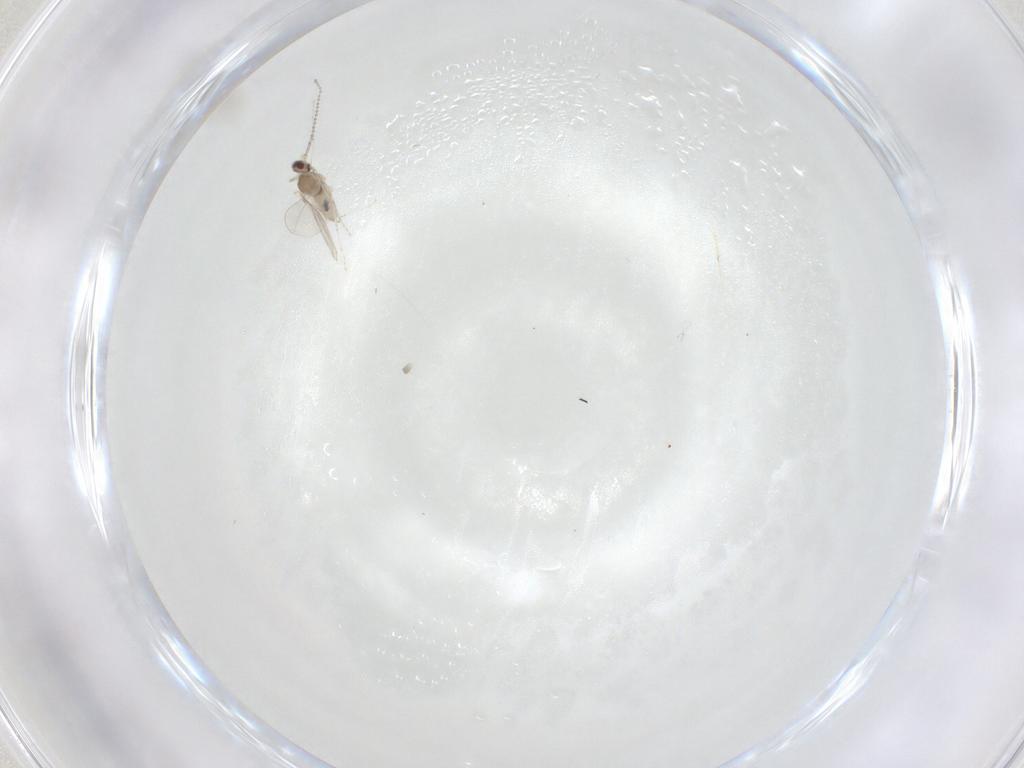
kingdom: Animalia
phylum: Arthropoda
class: Insecta
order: Diptera
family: Cecidomyiidae
